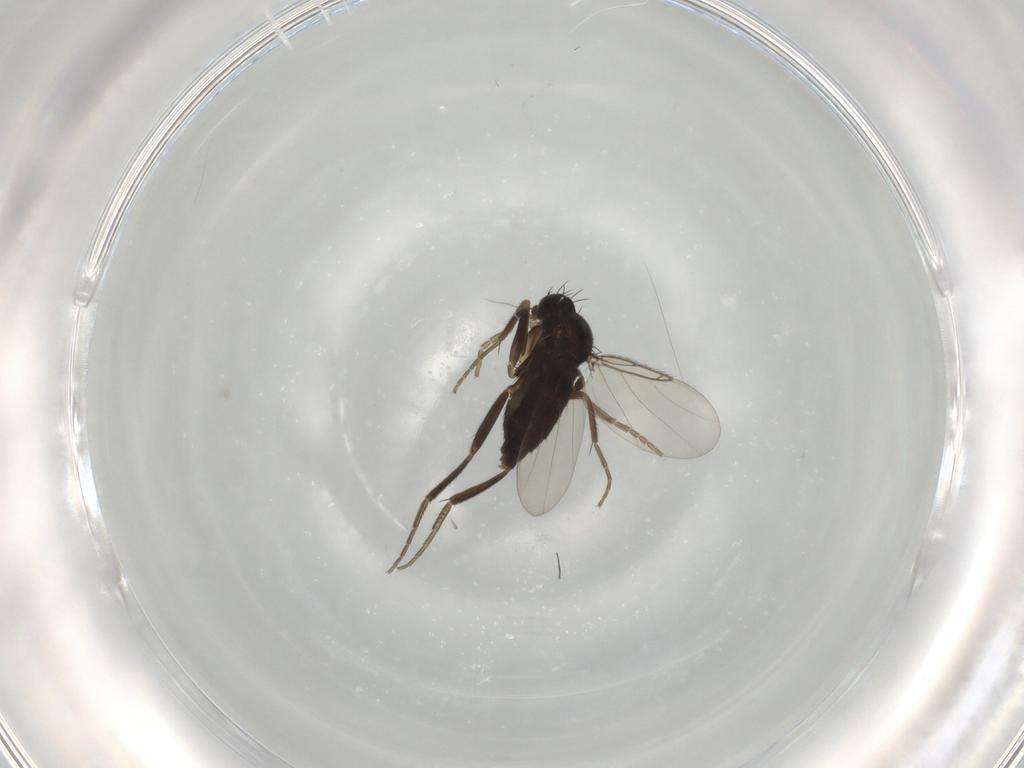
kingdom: Animalia
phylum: Arthropoda
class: Insecta
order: Diptera
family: Phoridae
